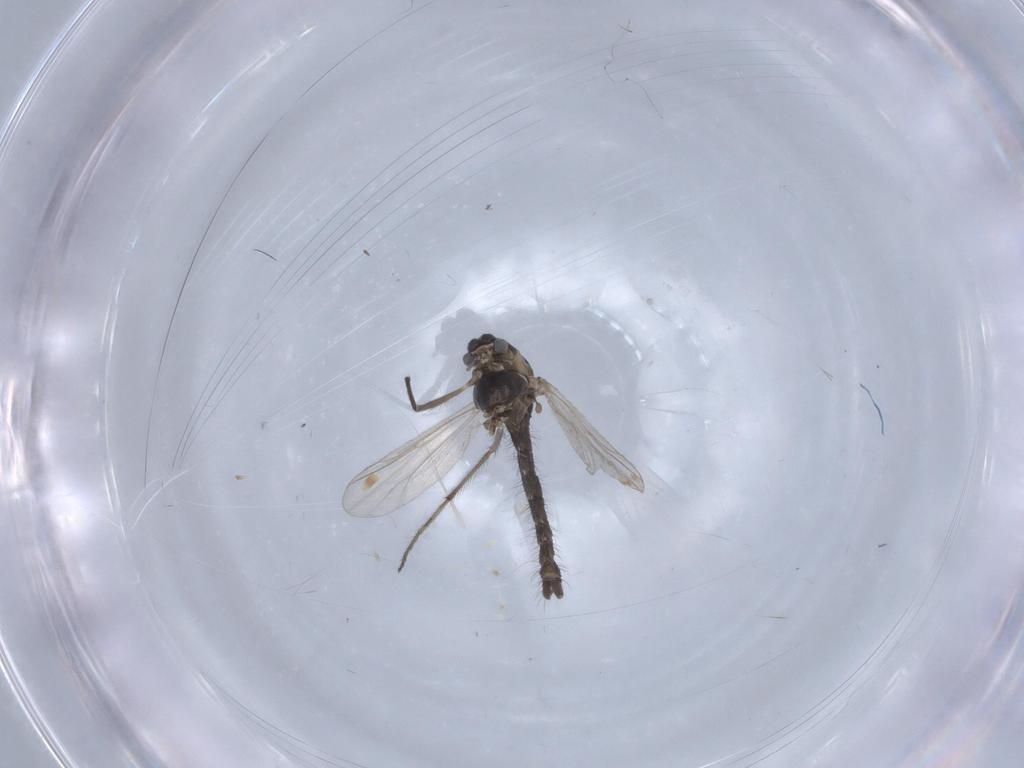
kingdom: Animalia
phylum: Arthropoda
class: Insecta
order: Diptera
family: Chironomidae
